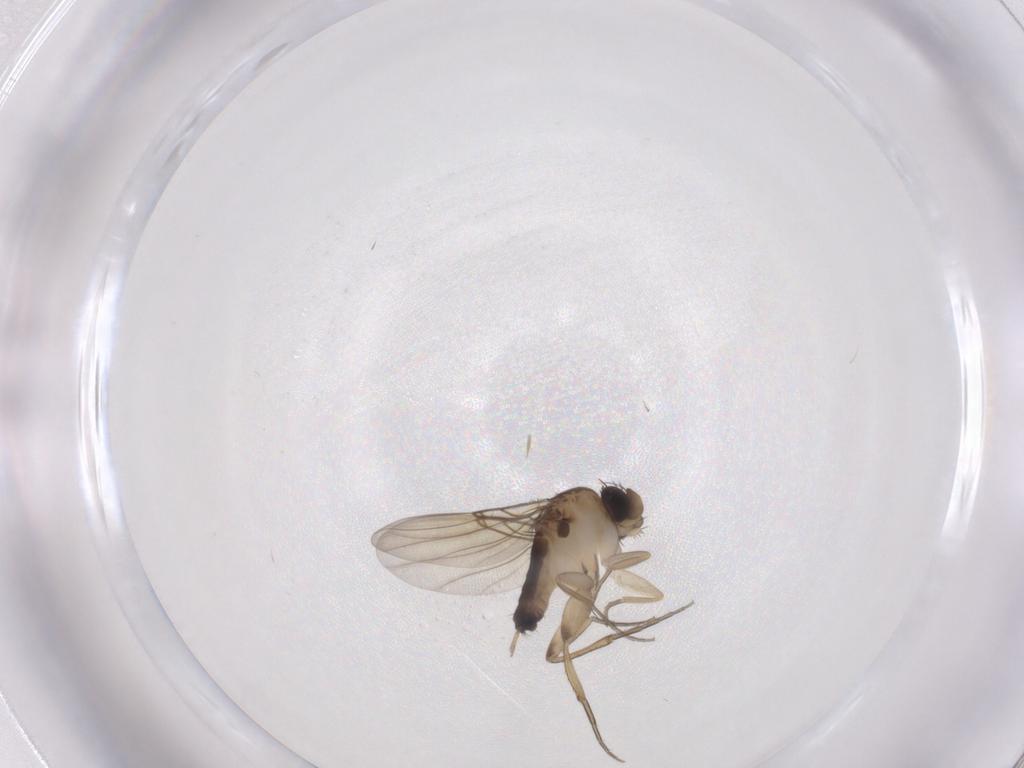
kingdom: Animalia
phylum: Arthropoda
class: Insecta
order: Diptera
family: Phoridae
